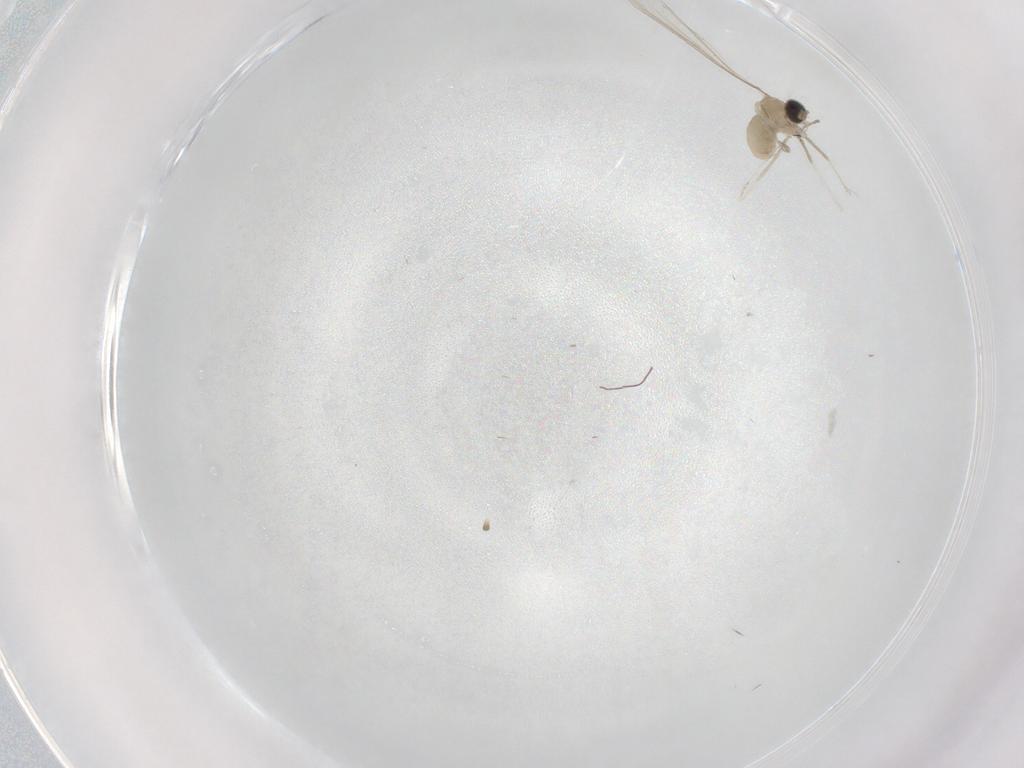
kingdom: Animalia
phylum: Arthropoda
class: Insecta
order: Diptera
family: Cecidomyiidae
